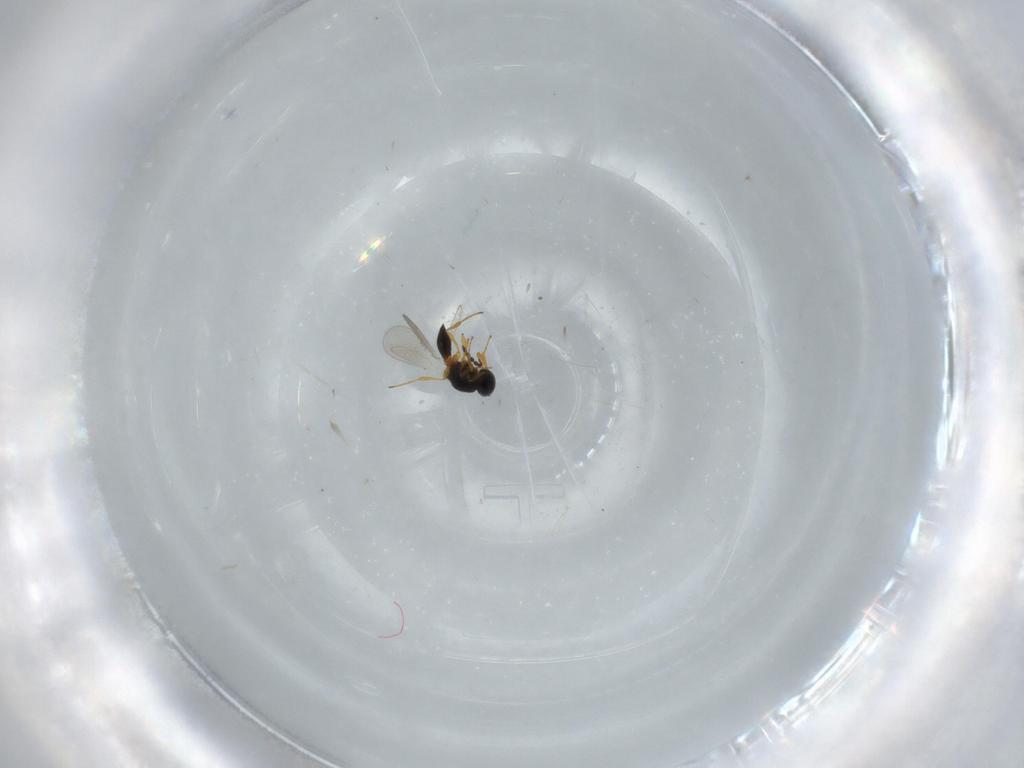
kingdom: Animalia
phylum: Arthropoda
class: Insecta
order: Hymenoptera
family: Platygastridae
